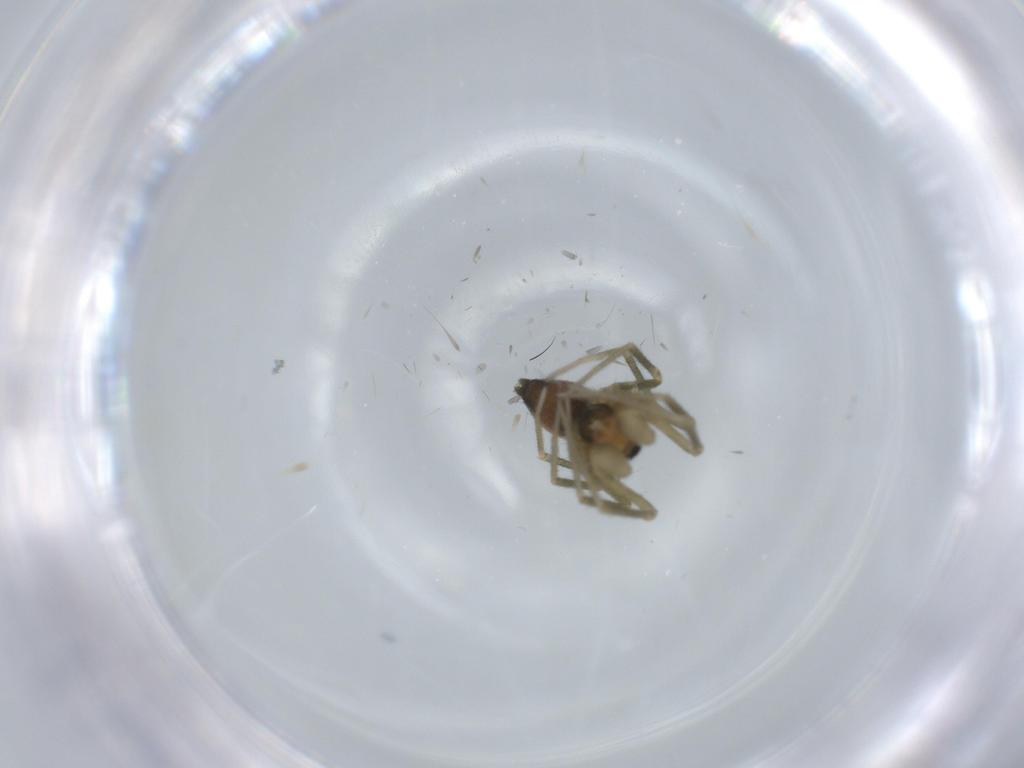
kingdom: Animalia
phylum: Arthropoda
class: Arachnida
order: Araneae
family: Linyphiidae
